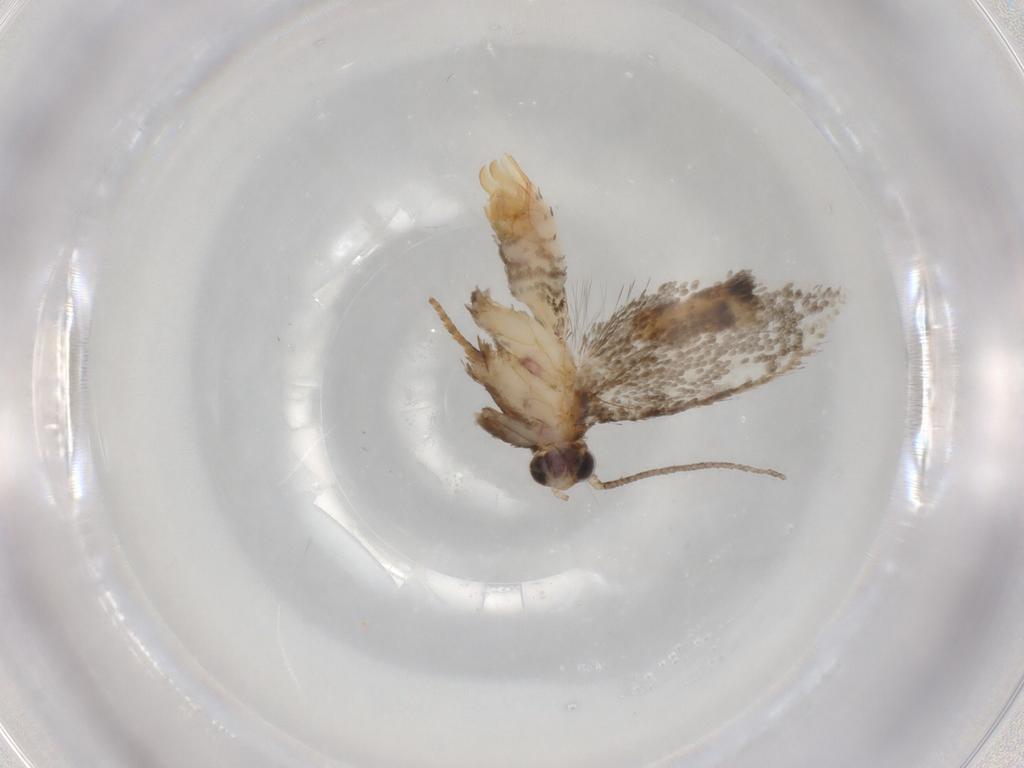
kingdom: Animalia
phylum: Arthropoda
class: Insecta
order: Lepidoptera
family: Tineidae
